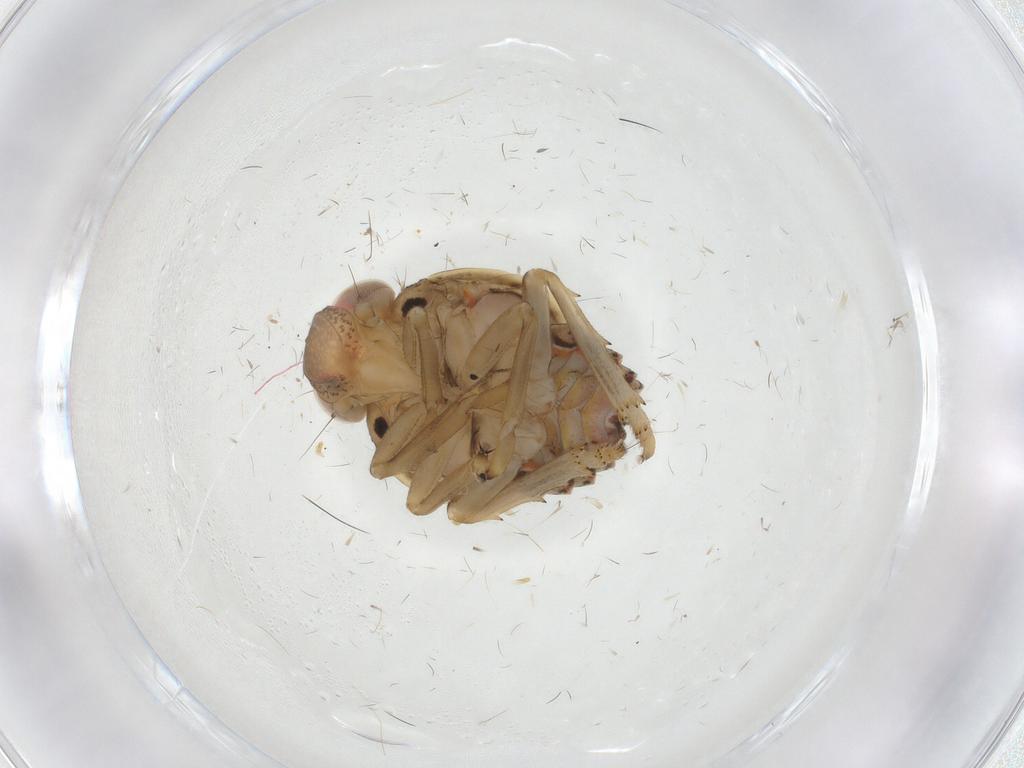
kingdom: Animalia
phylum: Arthropoda
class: Insecta
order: Hemiptera
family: Issidae
